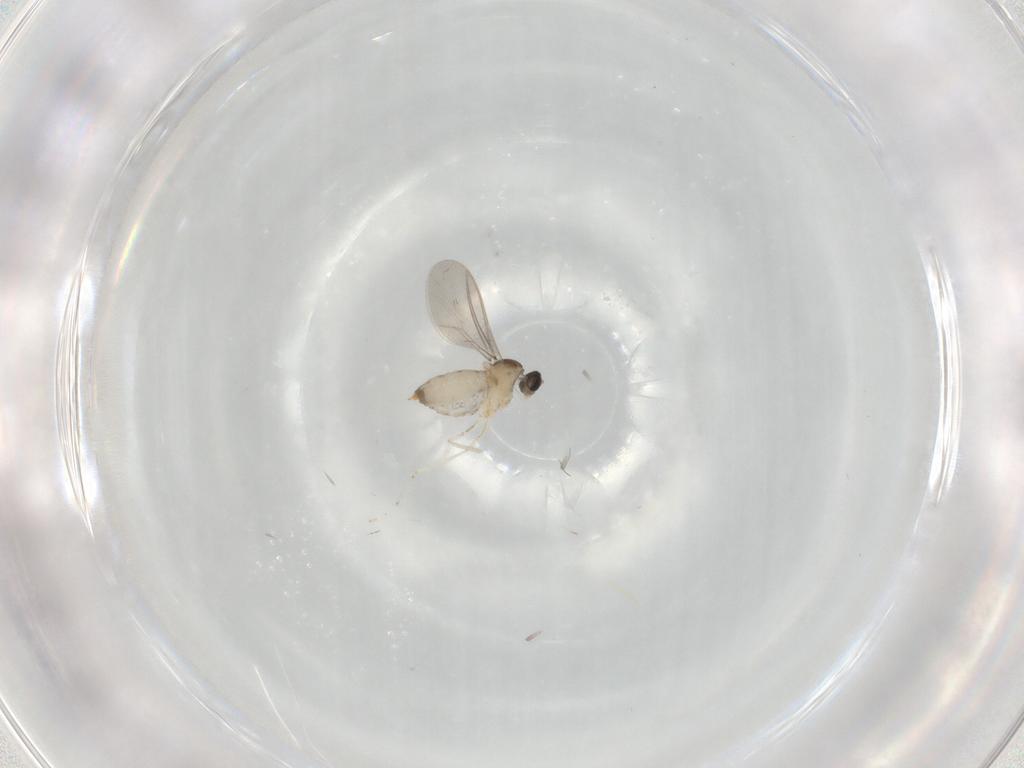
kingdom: Animalia
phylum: Arthropoda
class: Insecta
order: Diptera
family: Cecidomyiidae
